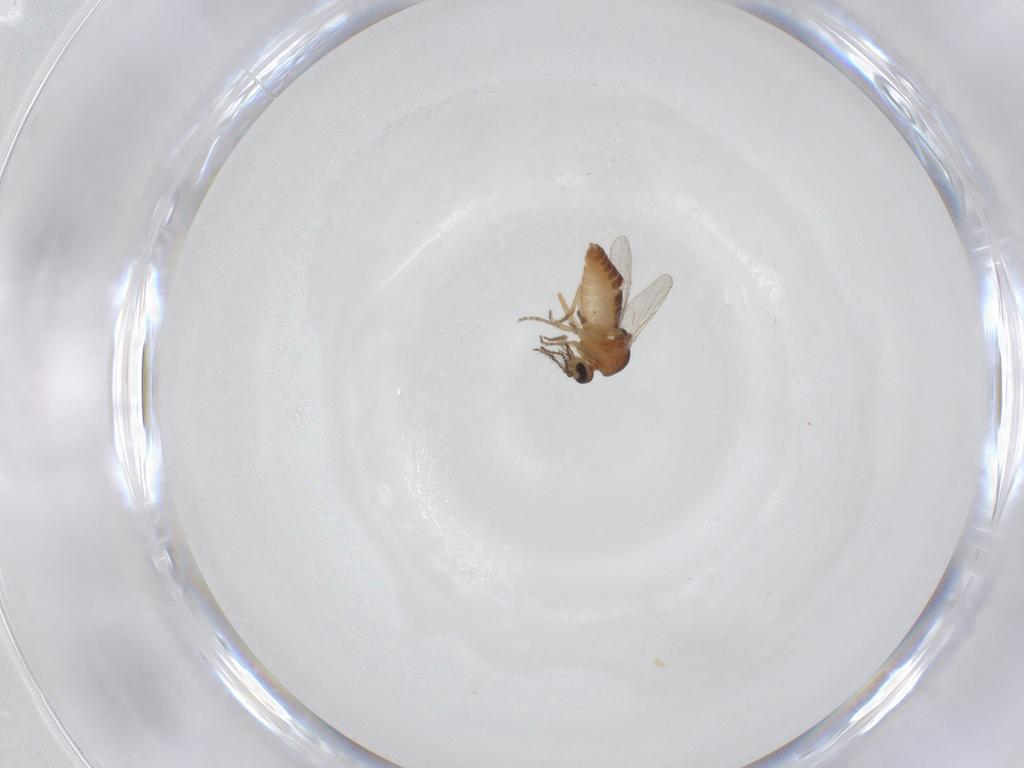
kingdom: Animalia
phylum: Arthropoda
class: Insecta
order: Diptera
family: Ceratopogonidae
